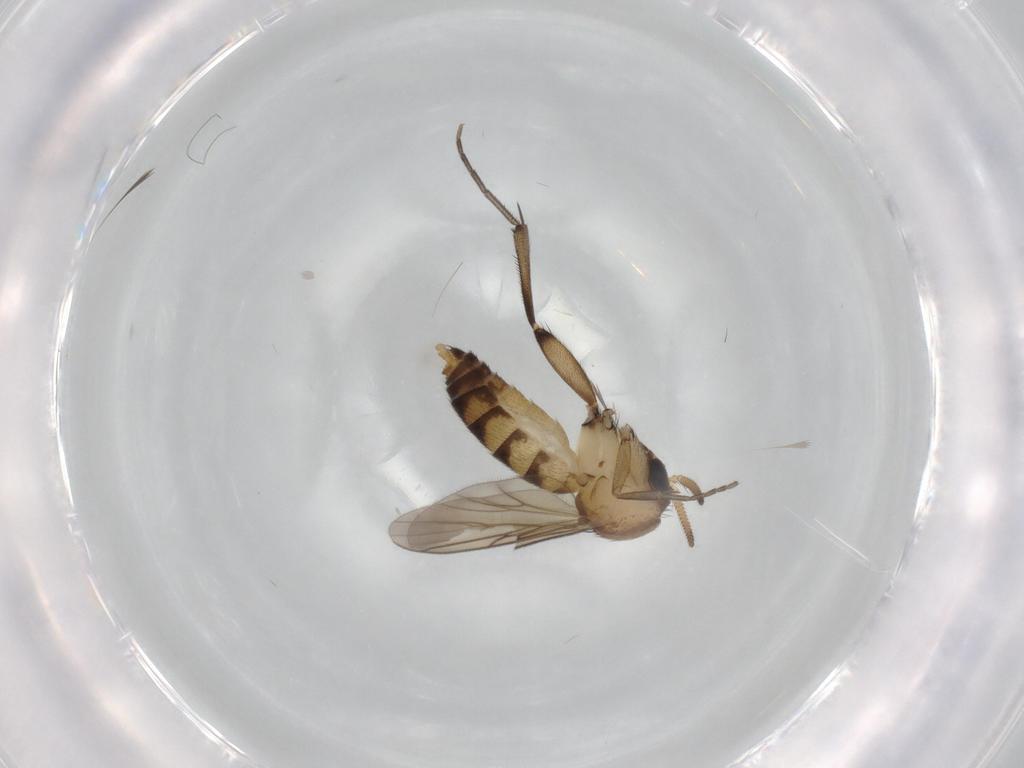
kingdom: Animalia
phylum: Arthropoda
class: Insecta
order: Diptera
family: Mycetophilidae
